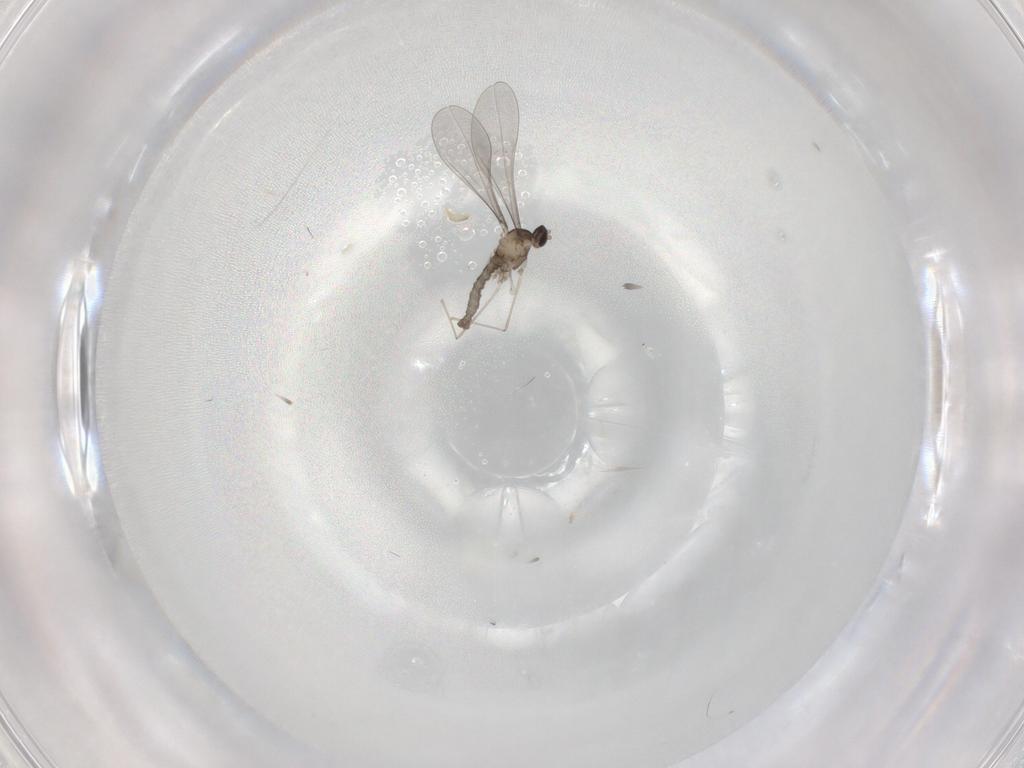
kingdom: Animalia
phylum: Arthropoda
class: Insecta
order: Diptera
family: Cecidomyiidae
